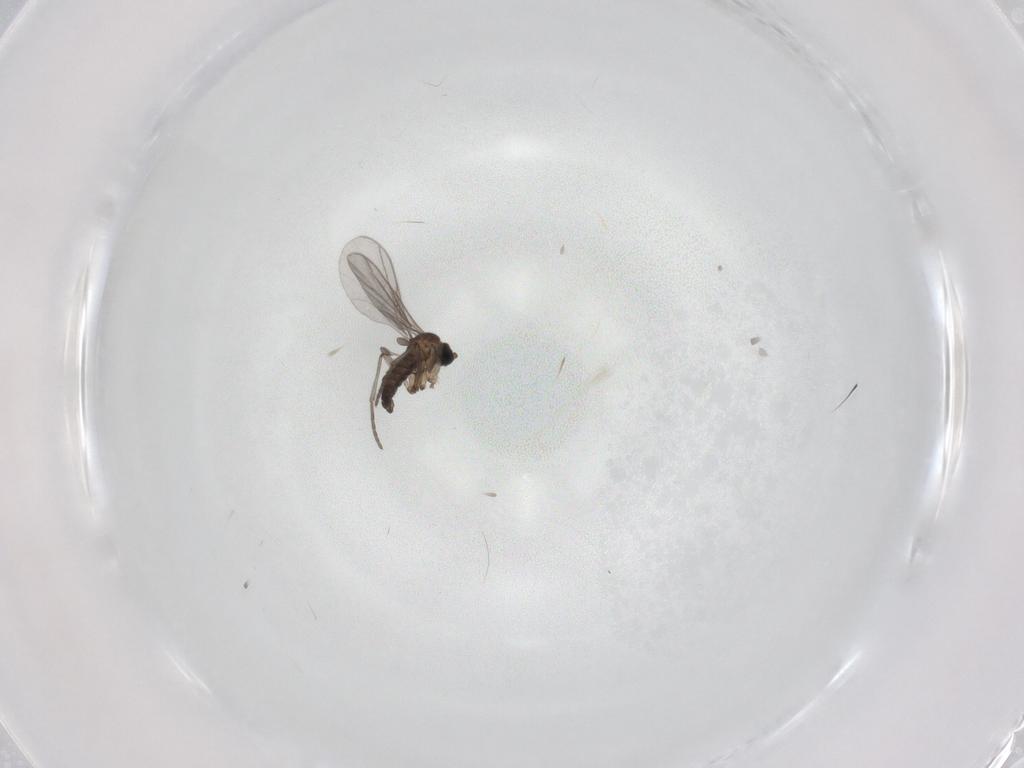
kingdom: Animalia
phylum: Arthropoda
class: Insecta
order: Diptera
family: Sciaridae
